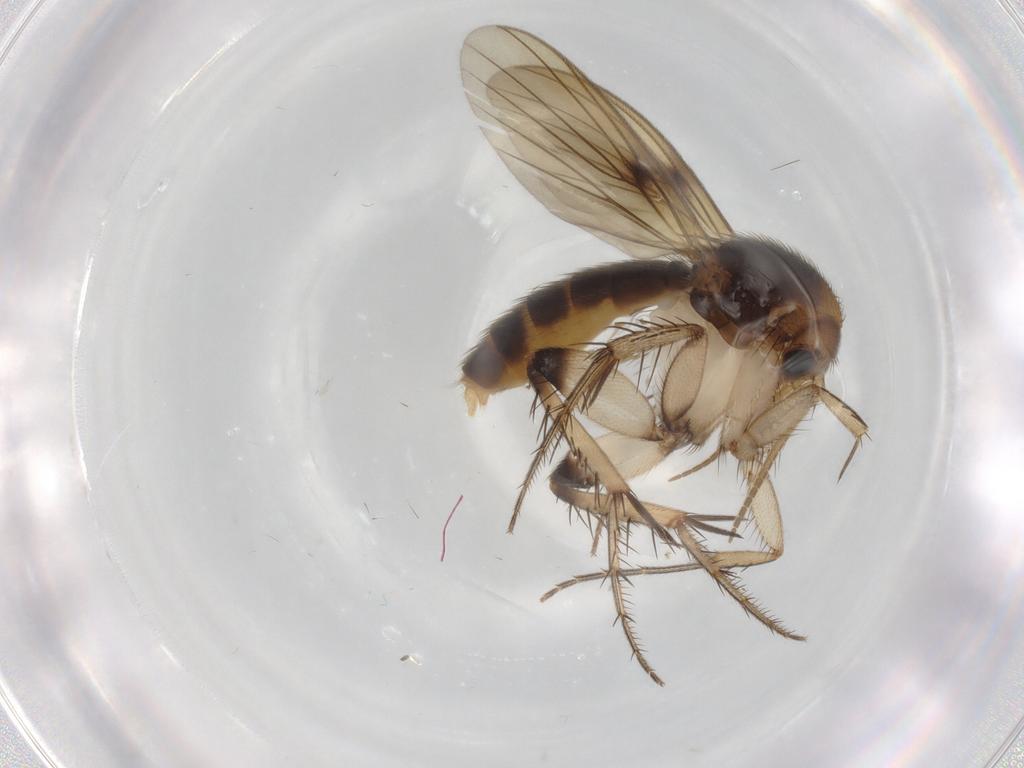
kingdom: Animalia
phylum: Arthropoda
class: Insecta
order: Diptera
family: Cecidomyiidae
